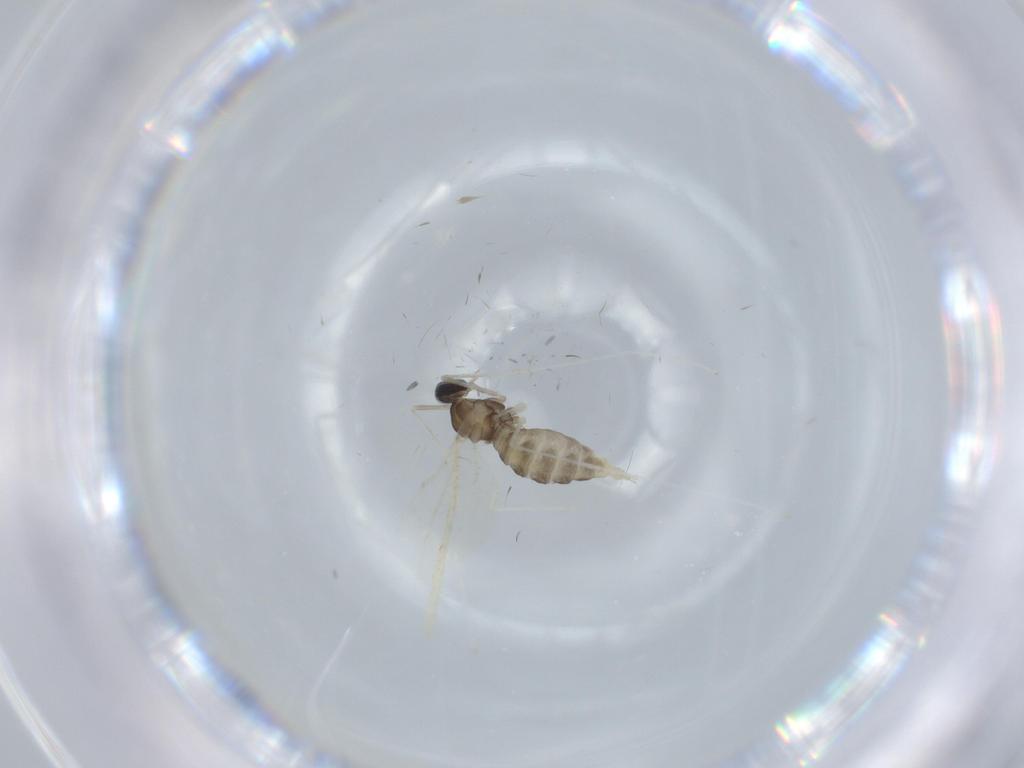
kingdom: Animalia
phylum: Arthropoda
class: Insecta
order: Diptera
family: Cecidomyiidae
